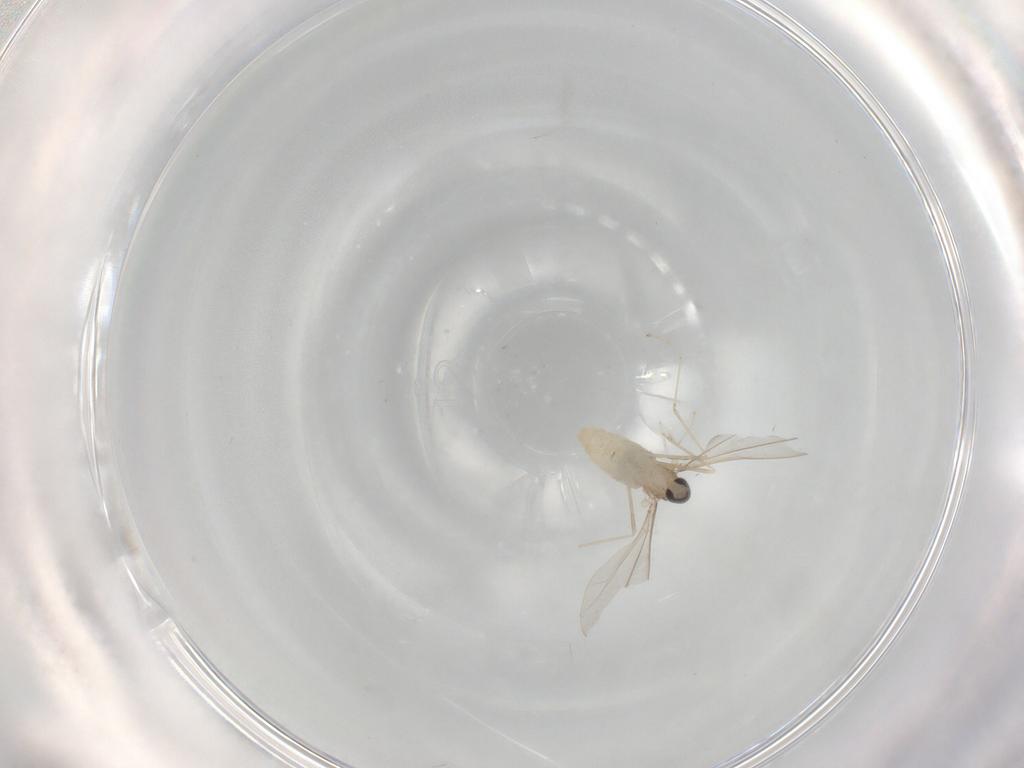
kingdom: Animalia
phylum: Arthropoda
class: Insecta
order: Diptera
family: Cecidomyiidae
